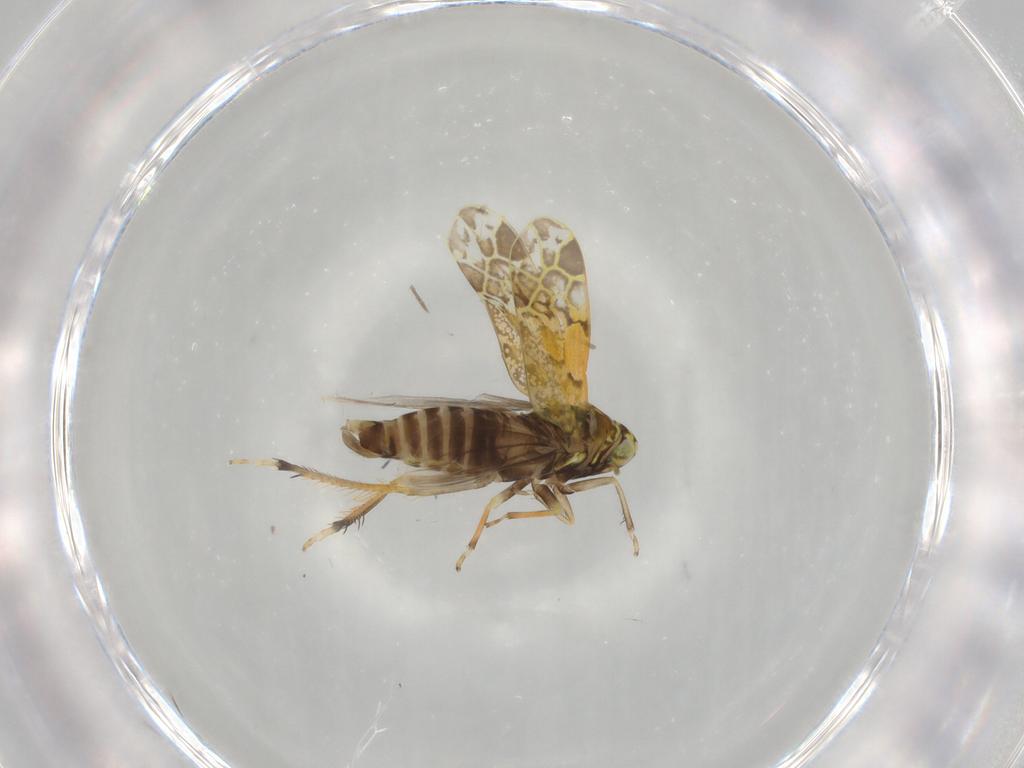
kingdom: Animalia
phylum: Arthropoda
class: Insecta
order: Hemiptera
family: Cicadellidae
